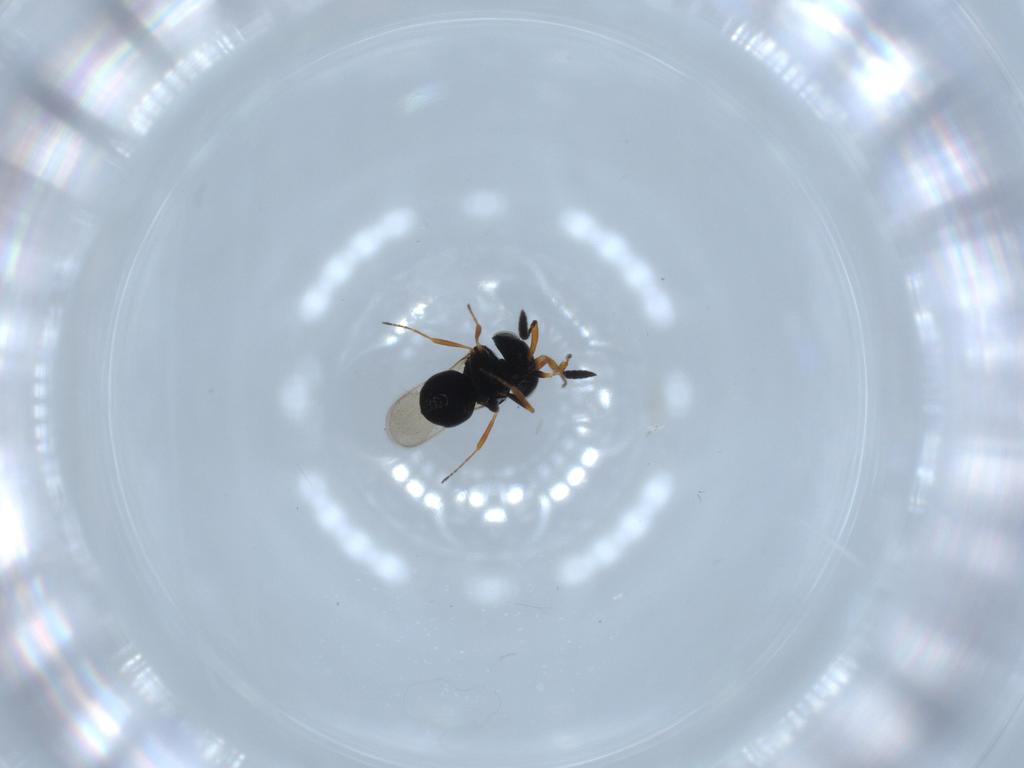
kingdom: Animalia
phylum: Arthropoda
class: Insecta
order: Hymenoptera
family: Scelionidae
